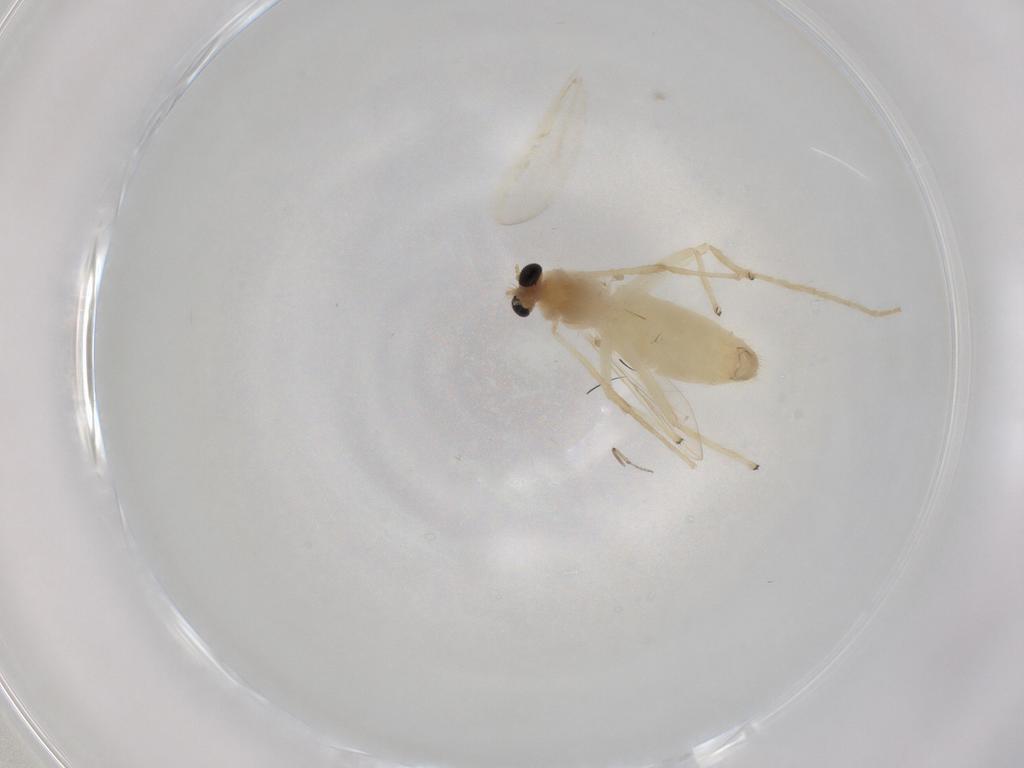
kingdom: Animalia
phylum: Arthropoda
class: Insecta
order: Diptera
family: Chironomidae
